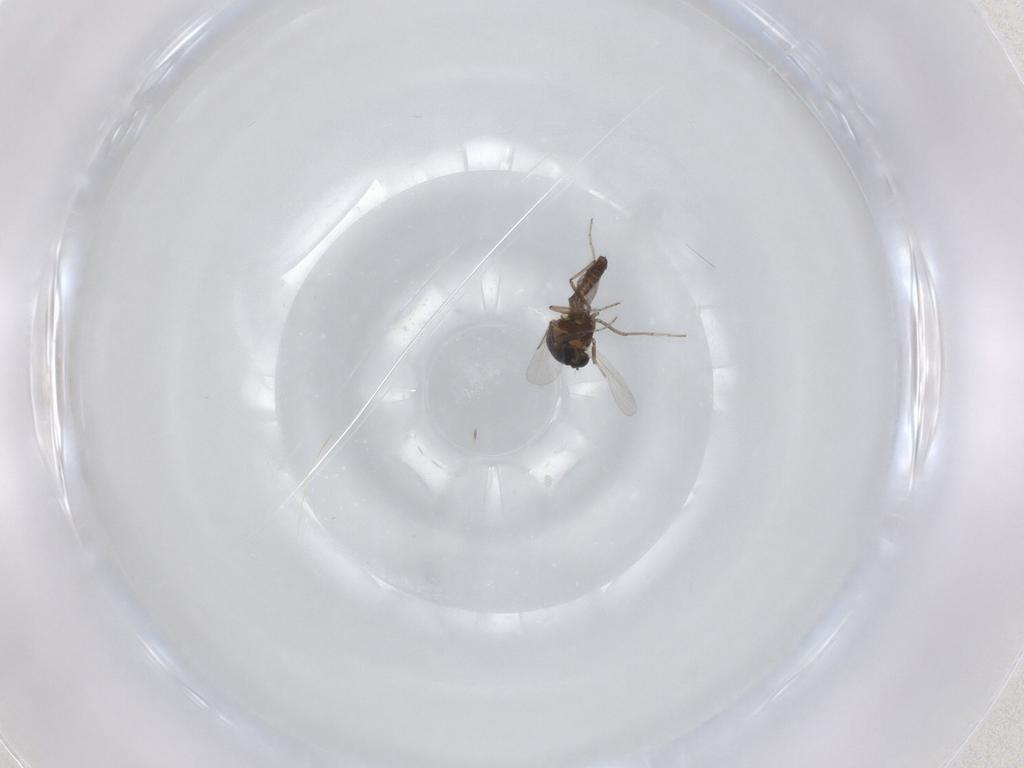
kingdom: Animalia
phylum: Arthropoda
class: Insecta
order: Diptera
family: Ceratopogonidae
